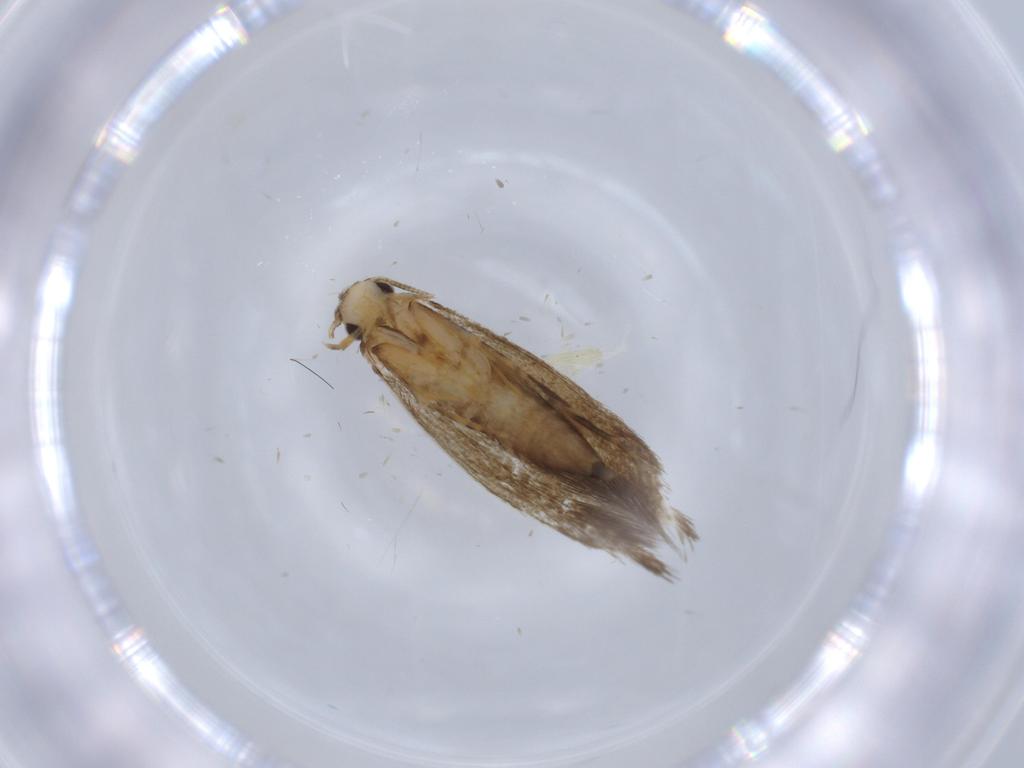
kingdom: Animalia
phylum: Arthropoda
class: Insecta
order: Lepidoptera
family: Tineidae
